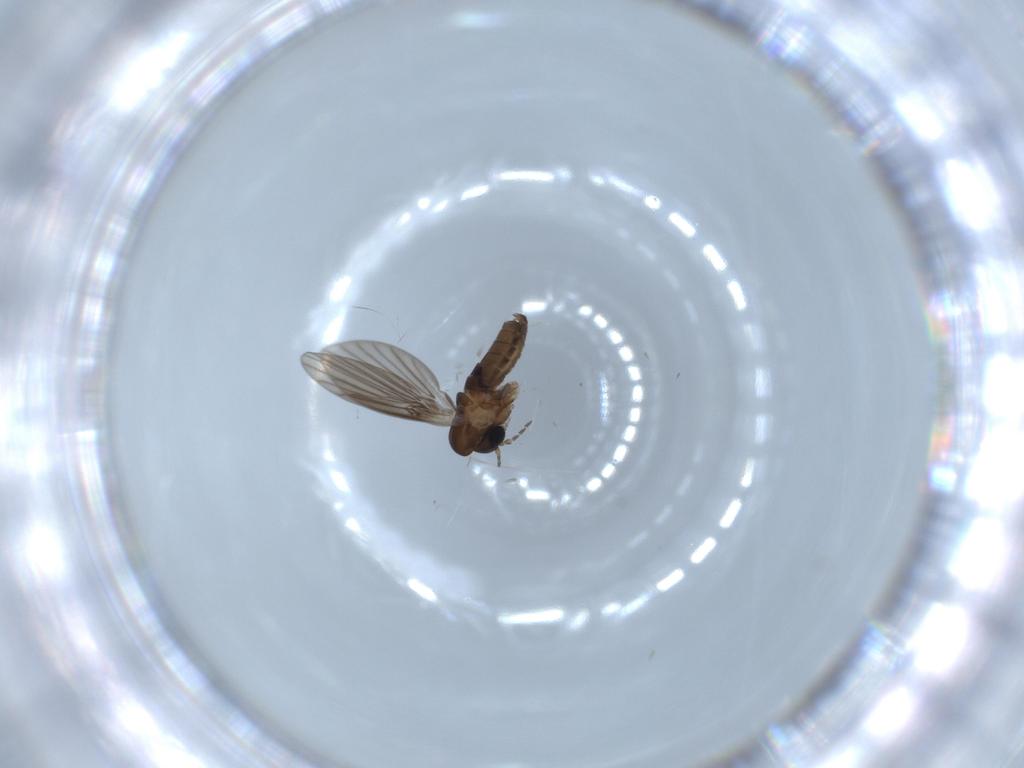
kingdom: Animalia
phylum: Arthropoda
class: Insecta
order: Diptera
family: Psychodidae
